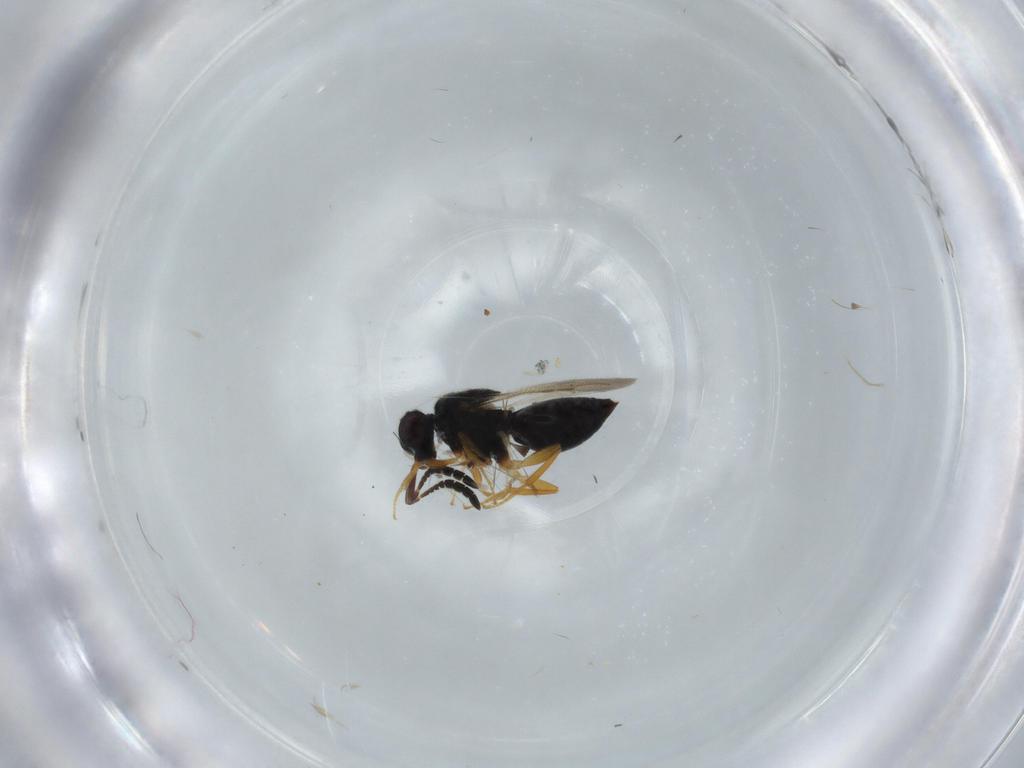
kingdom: Animalia
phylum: Arthropoda
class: Insecta
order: Hymenoptera
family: Ceraphronidae
